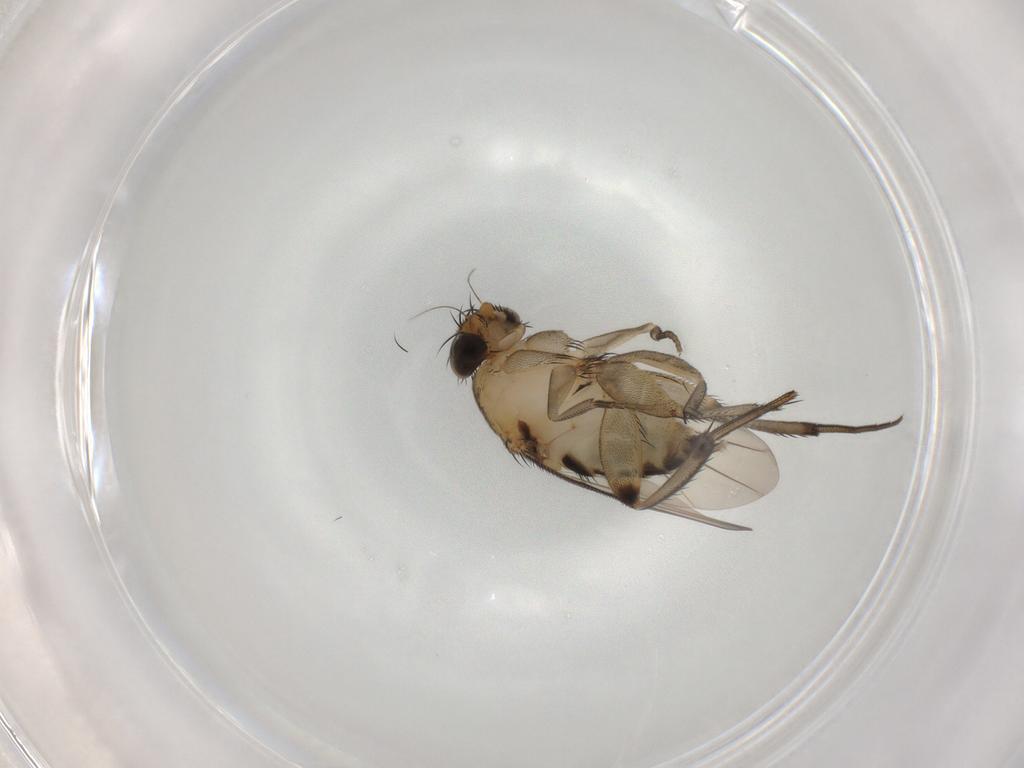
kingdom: Animalia
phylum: Arthropoda
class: Insecta
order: Diptera
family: Phoridae
